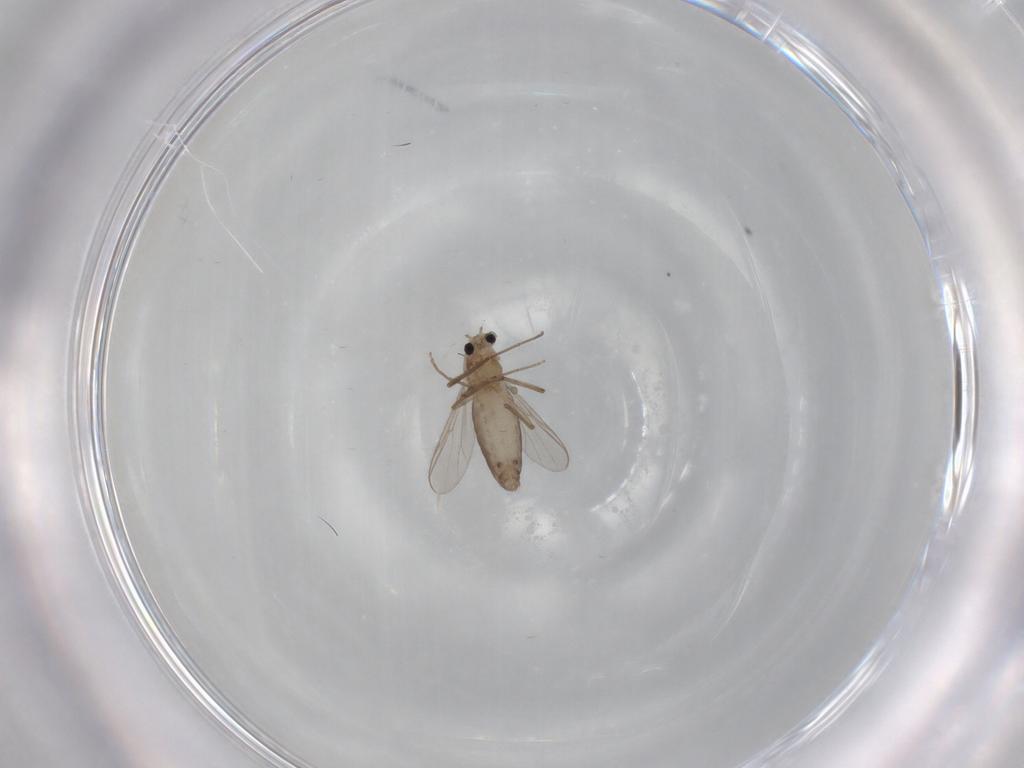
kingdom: Animalia
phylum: Arthropoda
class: Insecta
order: Diptera
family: Chironomidae
